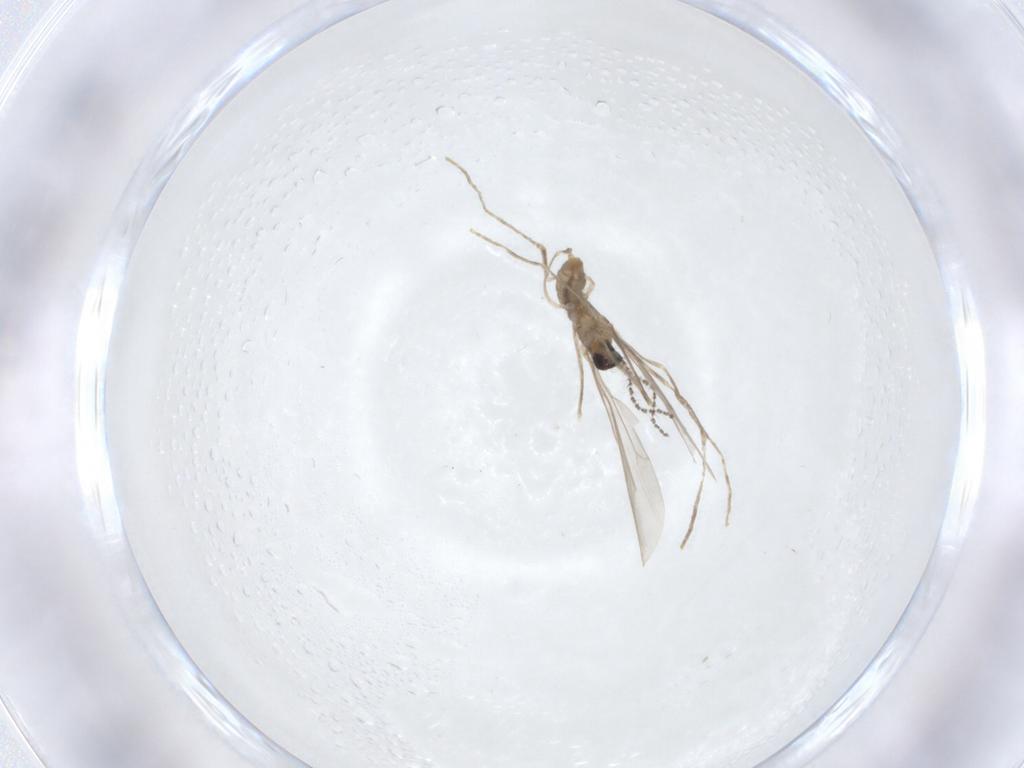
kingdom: Animalia
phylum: Arthropoda
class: Insecta
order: Diptera
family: Cecidomyiidae
